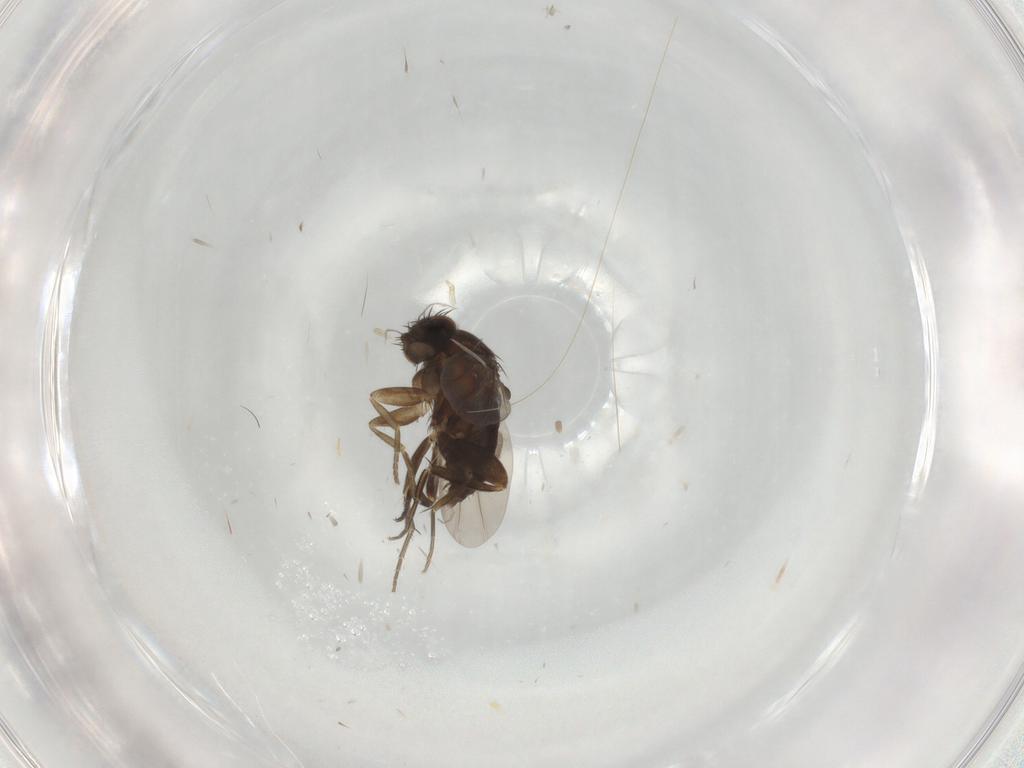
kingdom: Animalia
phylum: Arthropoda
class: Insecta
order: Diptera
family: Phoridae
